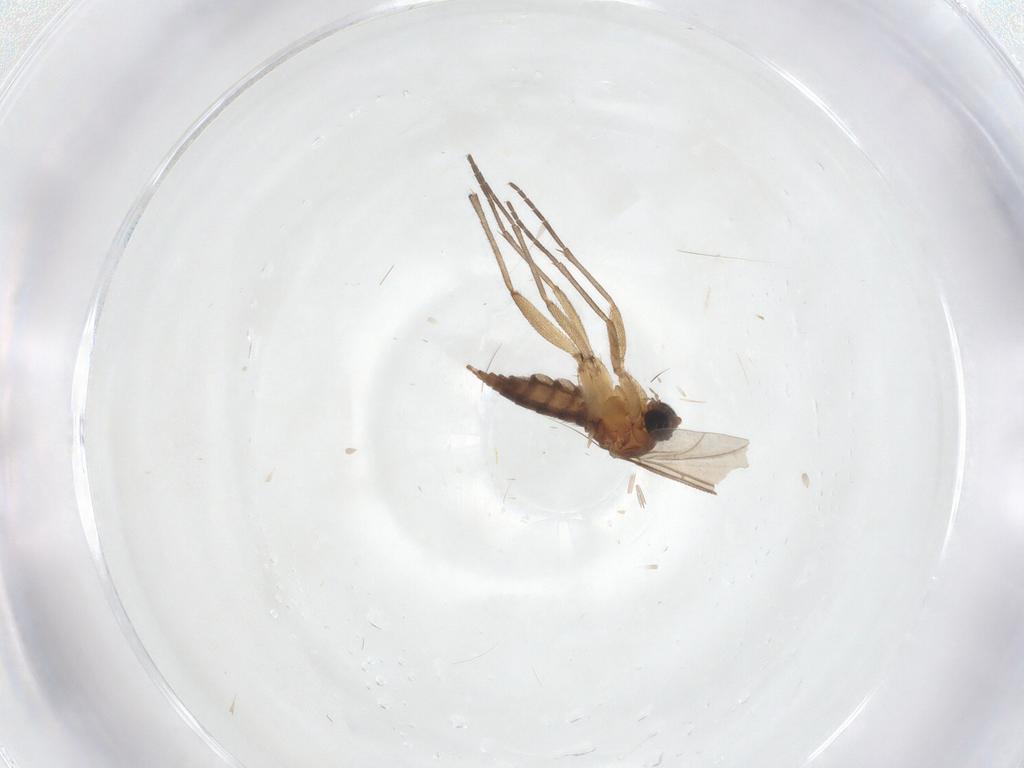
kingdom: Animalia
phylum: Arthropoda
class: Insecta
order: Diptera
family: Sciaridae
